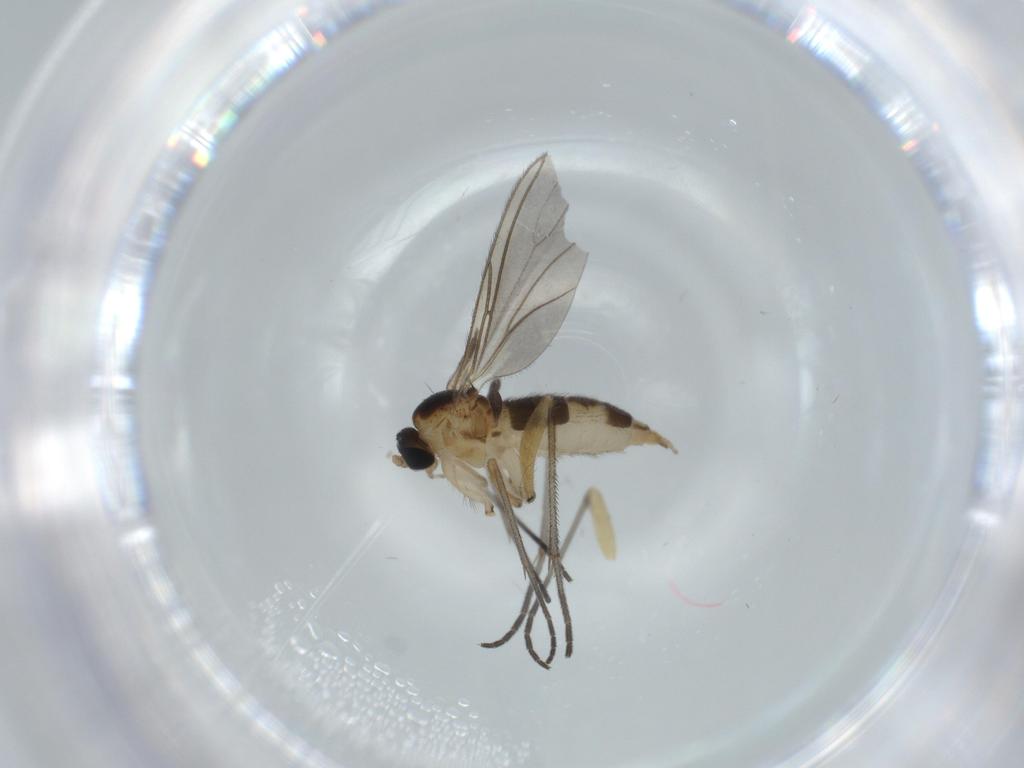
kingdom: Animalia
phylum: Arthropoda
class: Insecta
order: Diptera
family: Sciaridae
